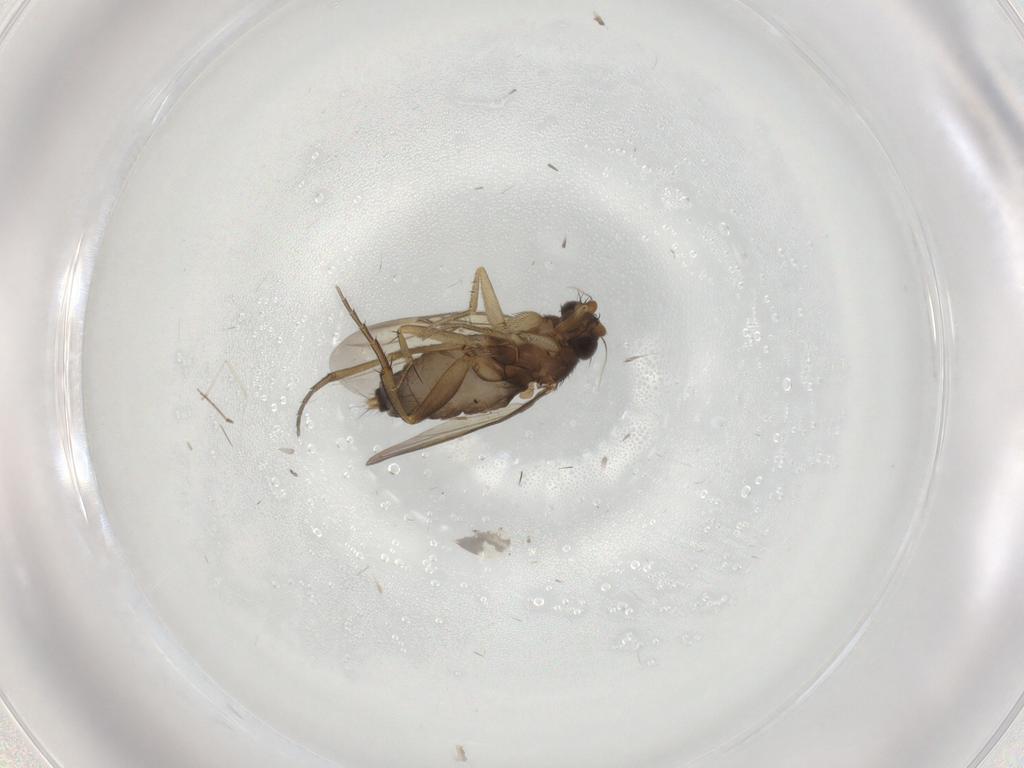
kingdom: Animalia
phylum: Arthropoda
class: Insecta
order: Diptera
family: Phoridae
